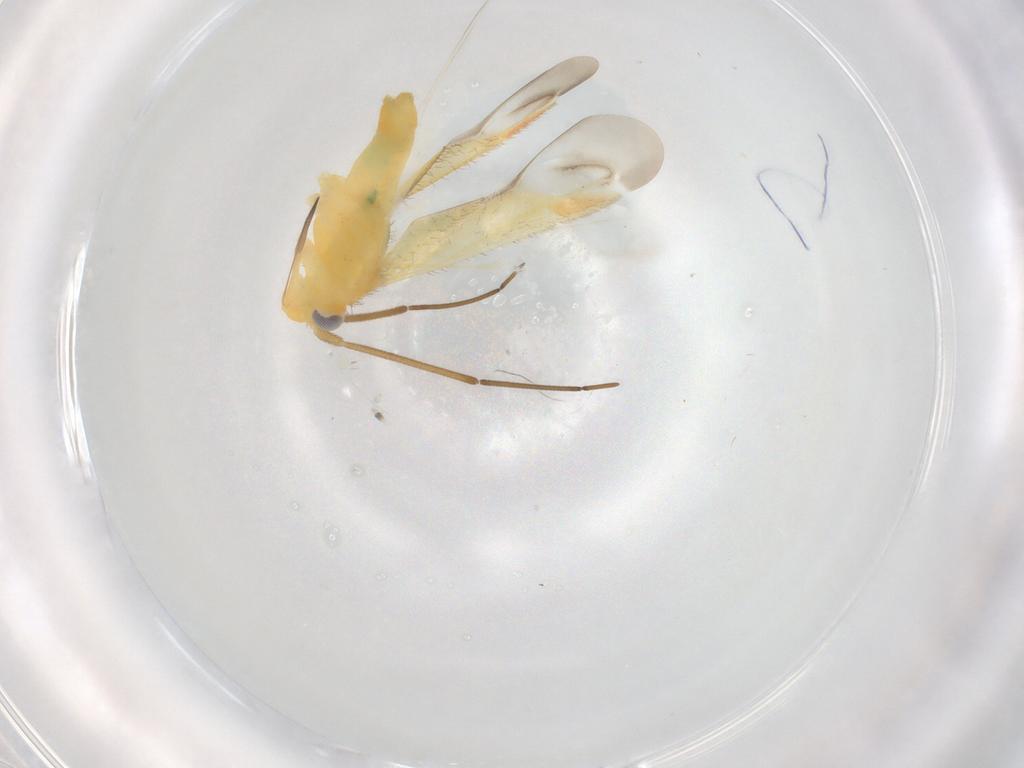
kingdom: Animalia
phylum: Arthropoda
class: Insecta
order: Hemiptera
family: Aleyrodidae
